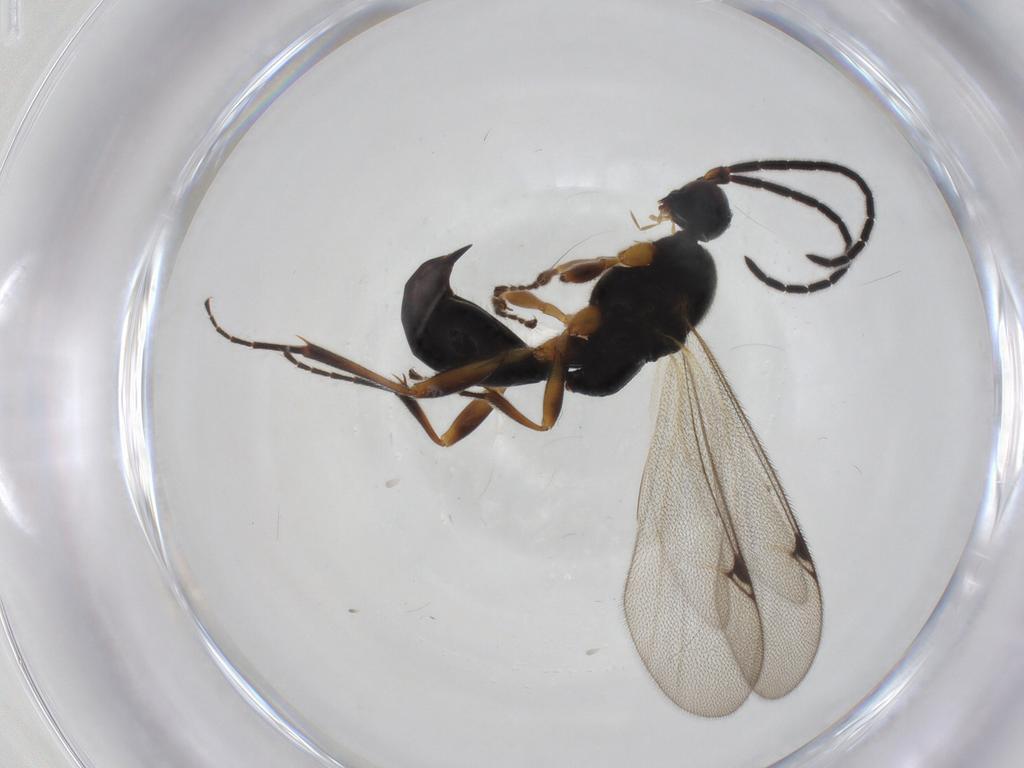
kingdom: Animalia
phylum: Arthropoda
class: Insecta
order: Hymenoptera
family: Proctotrupidae
